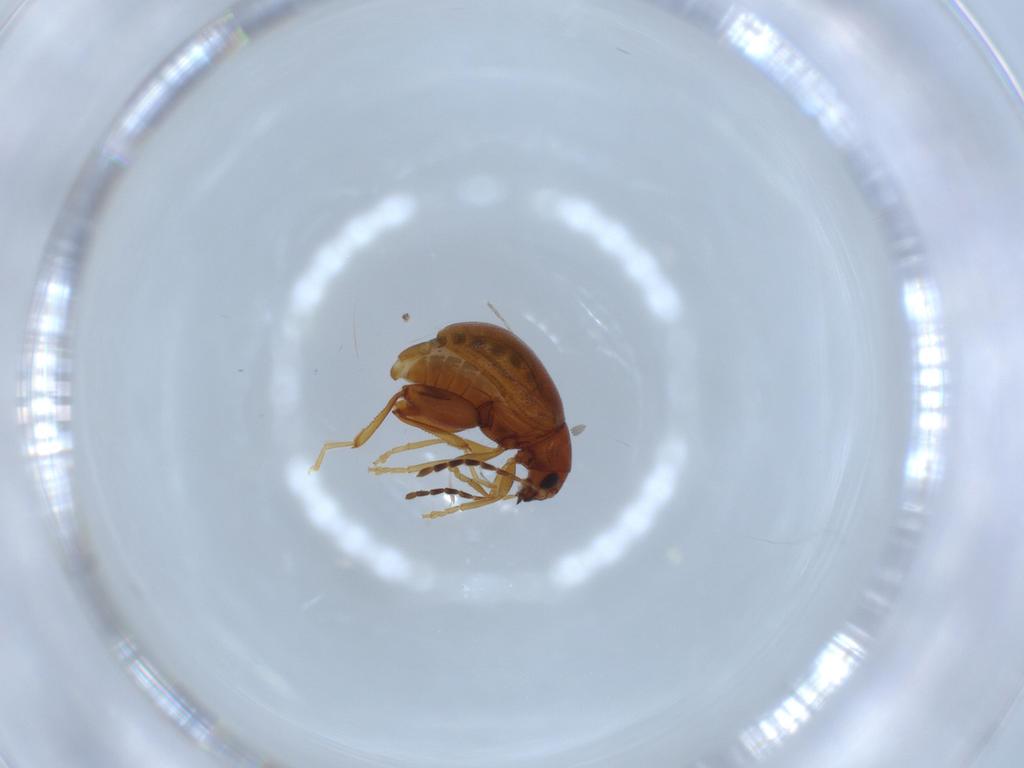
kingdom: Animalia
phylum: Arthropoda
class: Insecta
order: Coleoptera
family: Chrysomelidae
